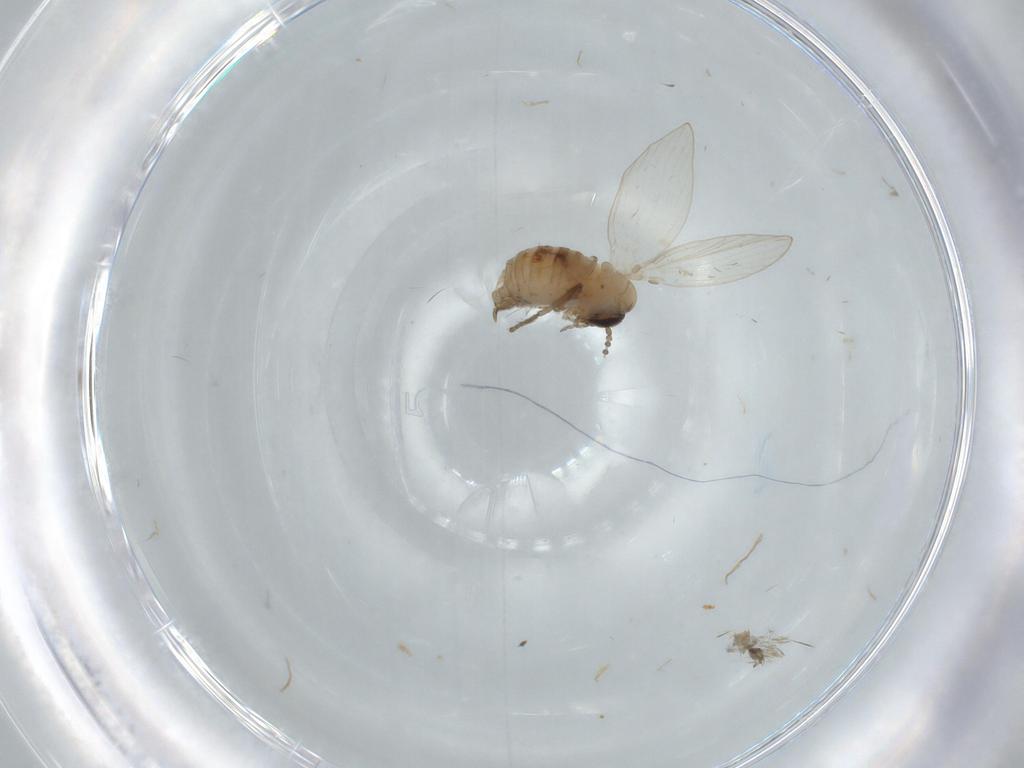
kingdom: Animalia
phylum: Arthropoda
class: Insecta
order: Diptera
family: Psychodidae
